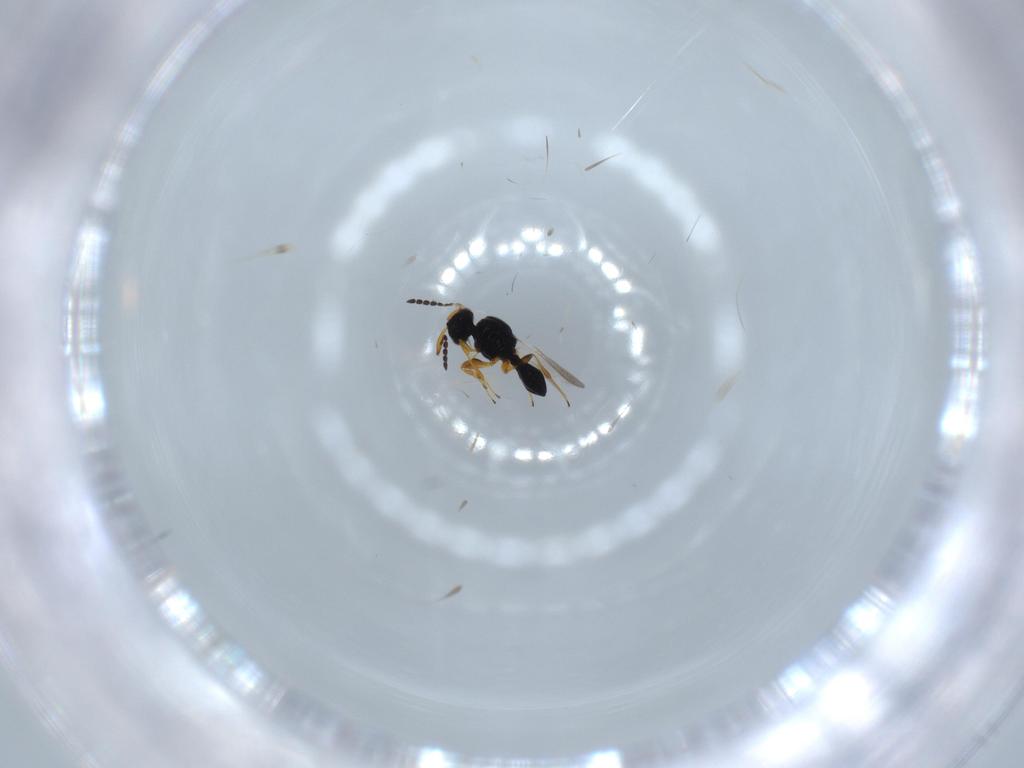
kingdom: Animalia
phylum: Arthropoda
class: Insecta
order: Hymenoptera
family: Platygastridae
